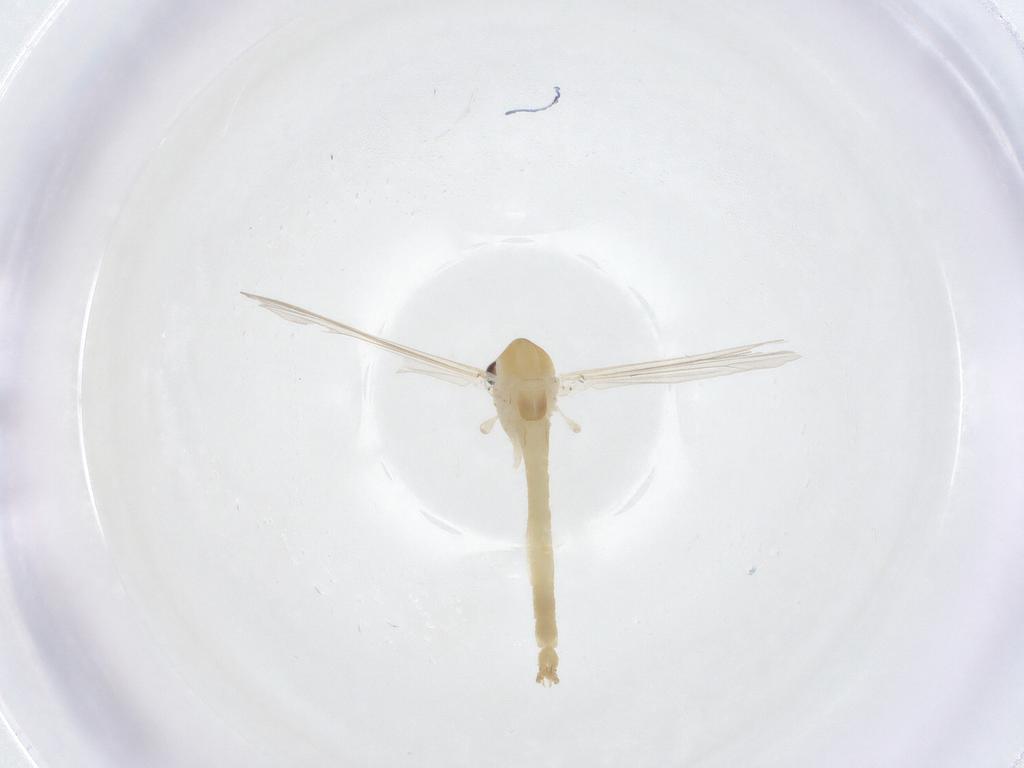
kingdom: Animalia
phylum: Arthropoda
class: Insecta
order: Diptera
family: Chironomidae
